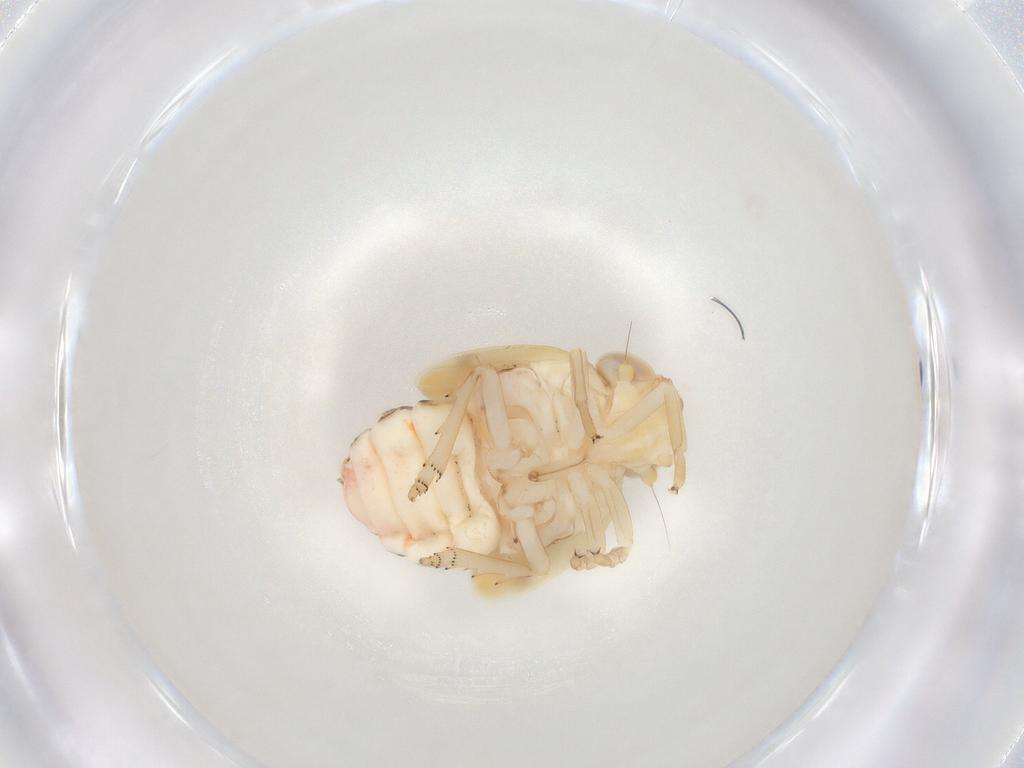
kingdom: Animalia
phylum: Arthropoda
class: Insecta
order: Hemiptera
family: Nogodinidae
